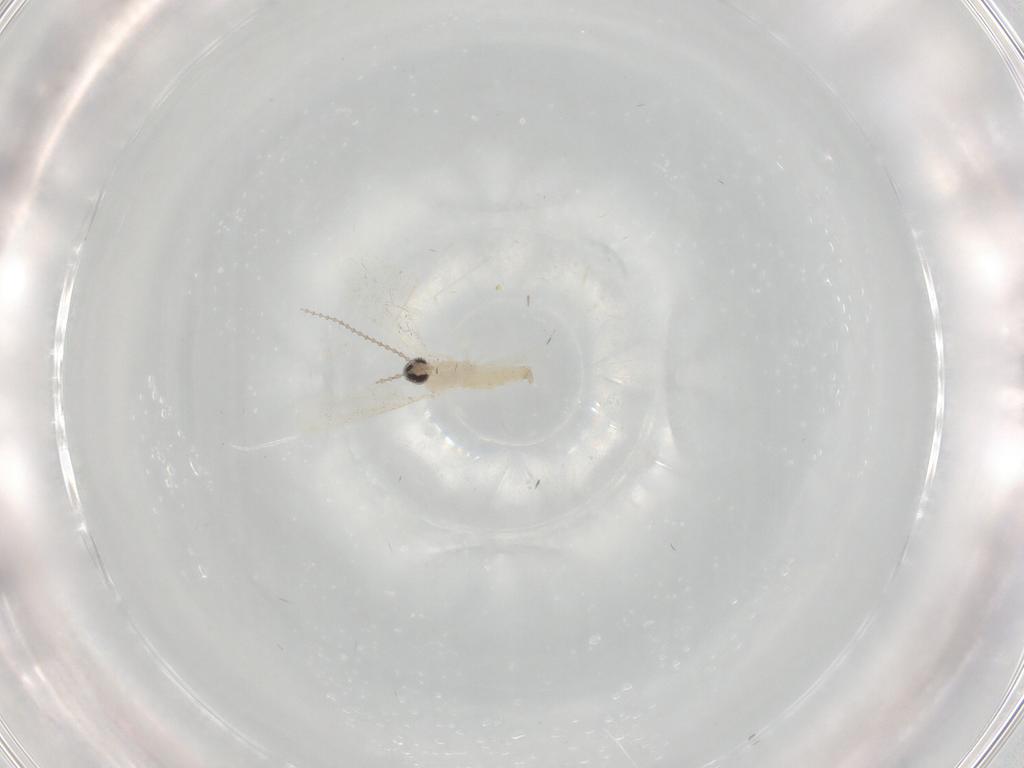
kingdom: Animalia
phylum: Arthropoda
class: Insecta
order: Diptera
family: Cecidomyiidae
